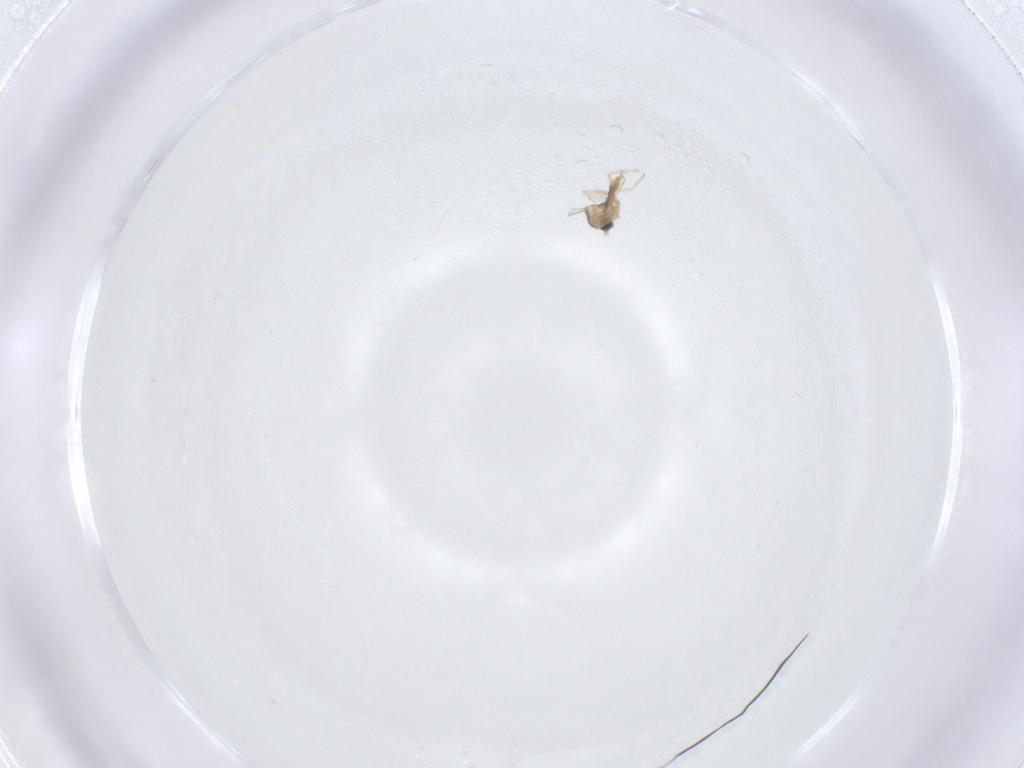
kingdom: Animalia
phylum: Arthropoda
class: Insecta
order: Diptera
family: Cecidomyiidae
